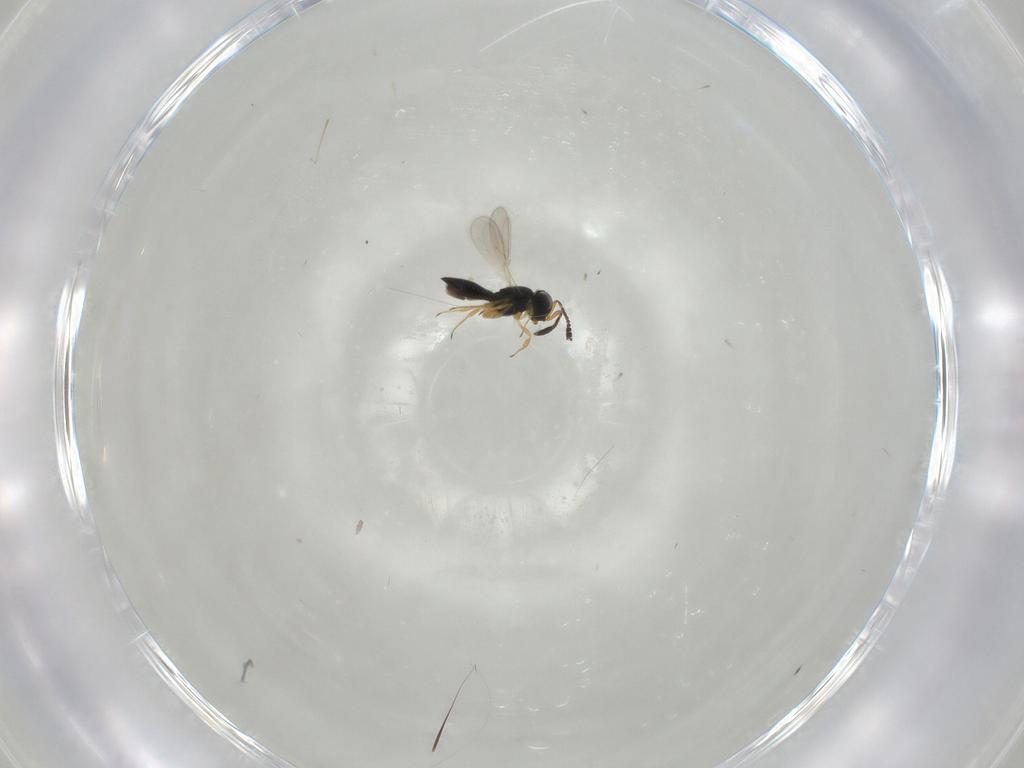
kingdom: Animalia
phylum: Arthropoda
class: Insecta
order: Hymenoptera
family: Scelionidae
